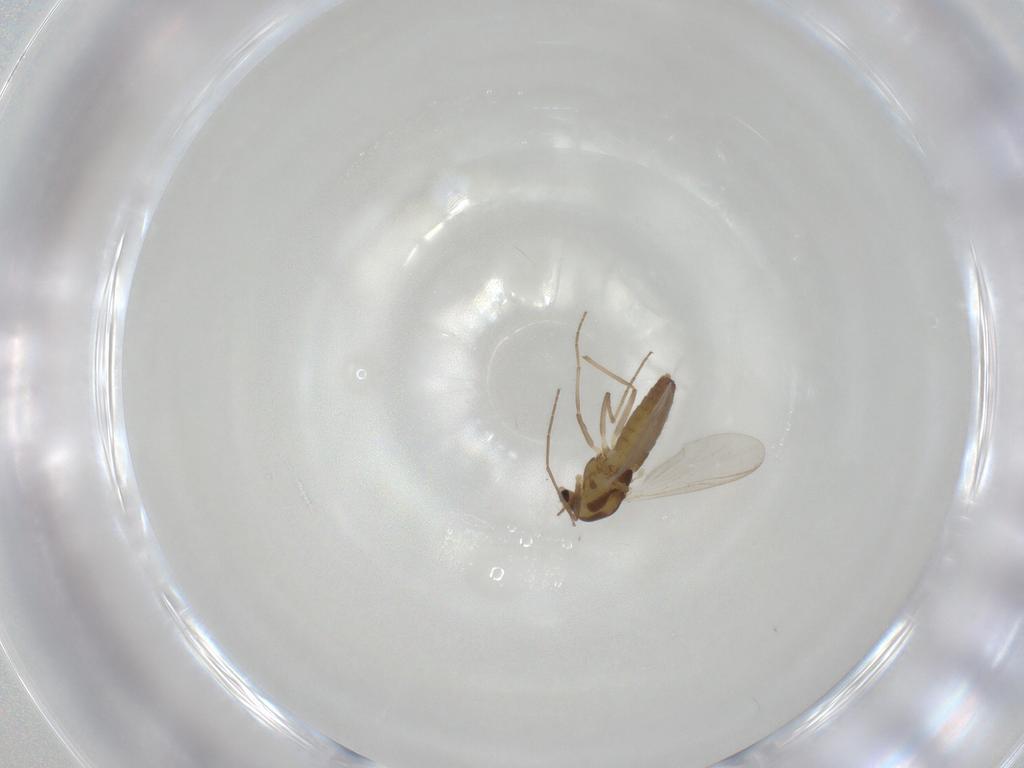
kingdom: Animalia
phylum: Arthropoda
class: Insecta
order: Diptera
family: Chironomidae
